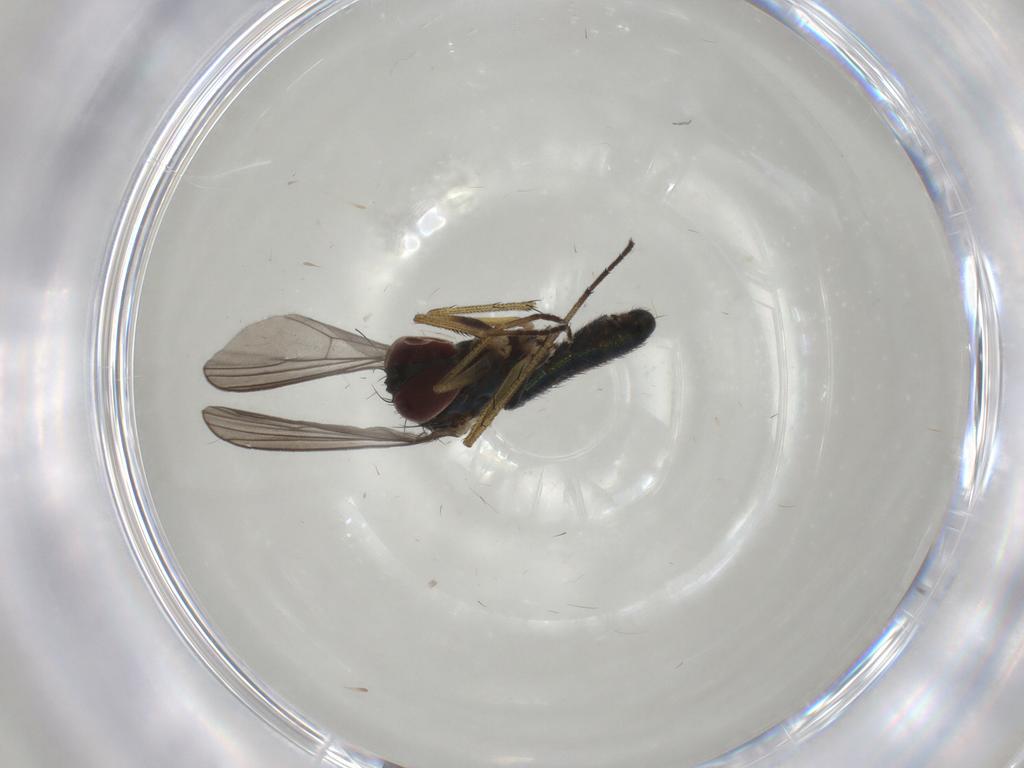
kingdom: Animalia
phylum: Arthropoda
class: Insecta
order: Diptera
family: Dolichopodidae
